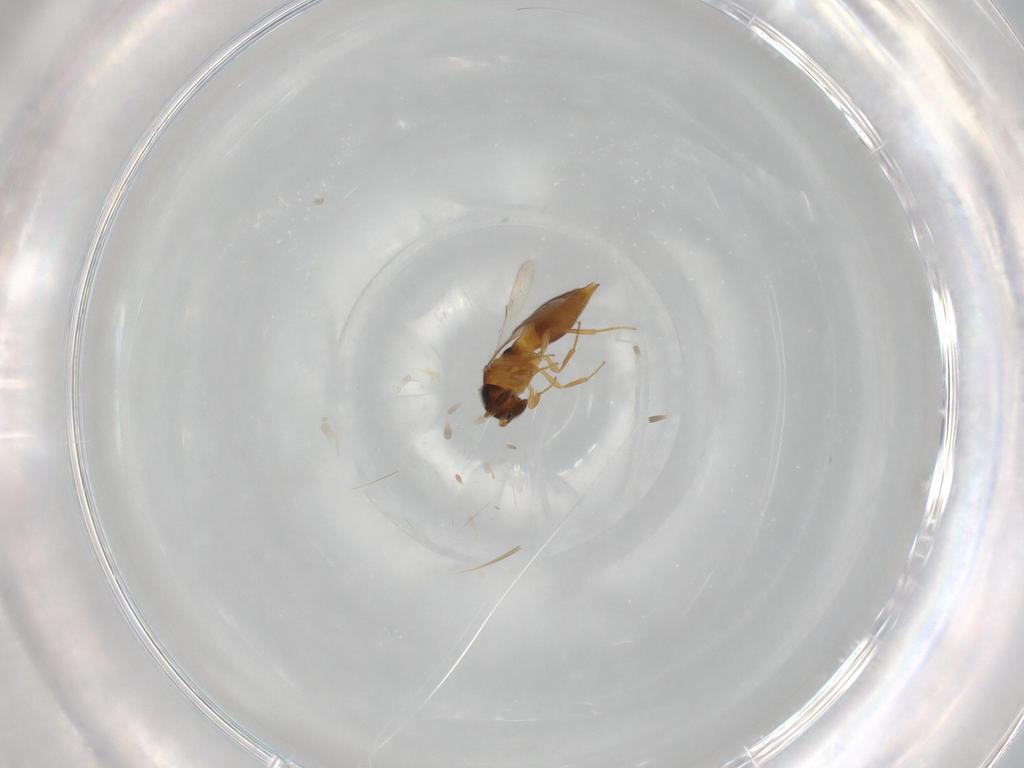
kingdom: Animalia
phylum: Arthropoda
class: Insecta
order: Hymenoptera
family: Scelionidae
